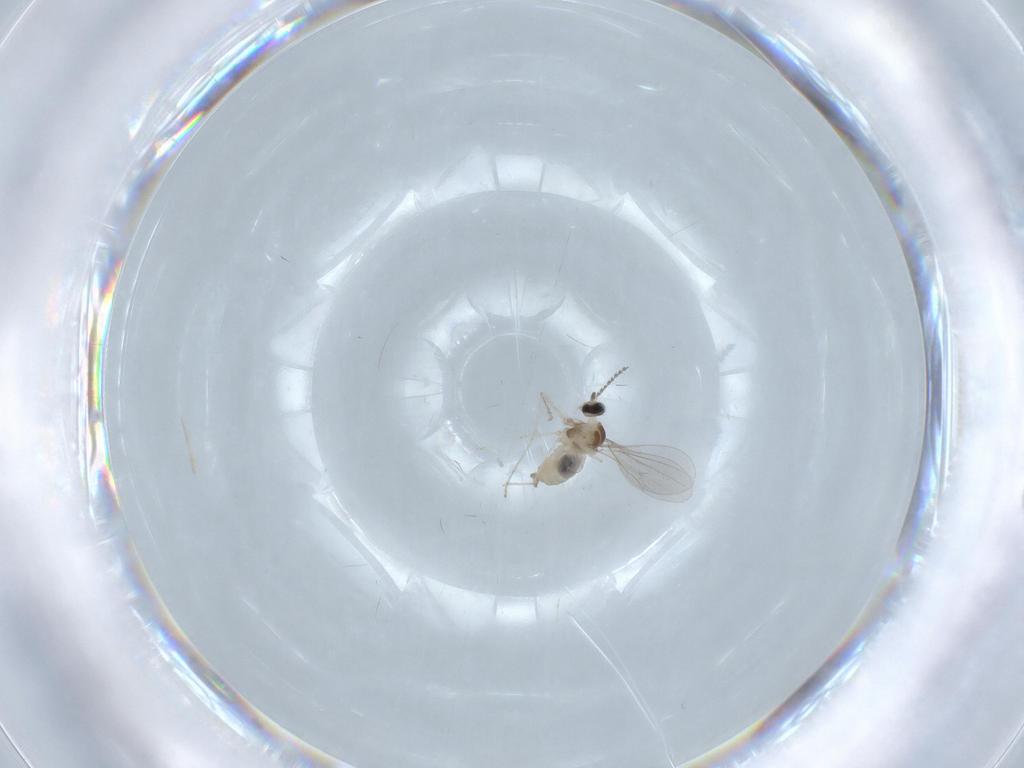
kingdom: Animalia
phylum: Arthropoda
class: Insecta
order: Diptera
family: Cecidomyiidae
